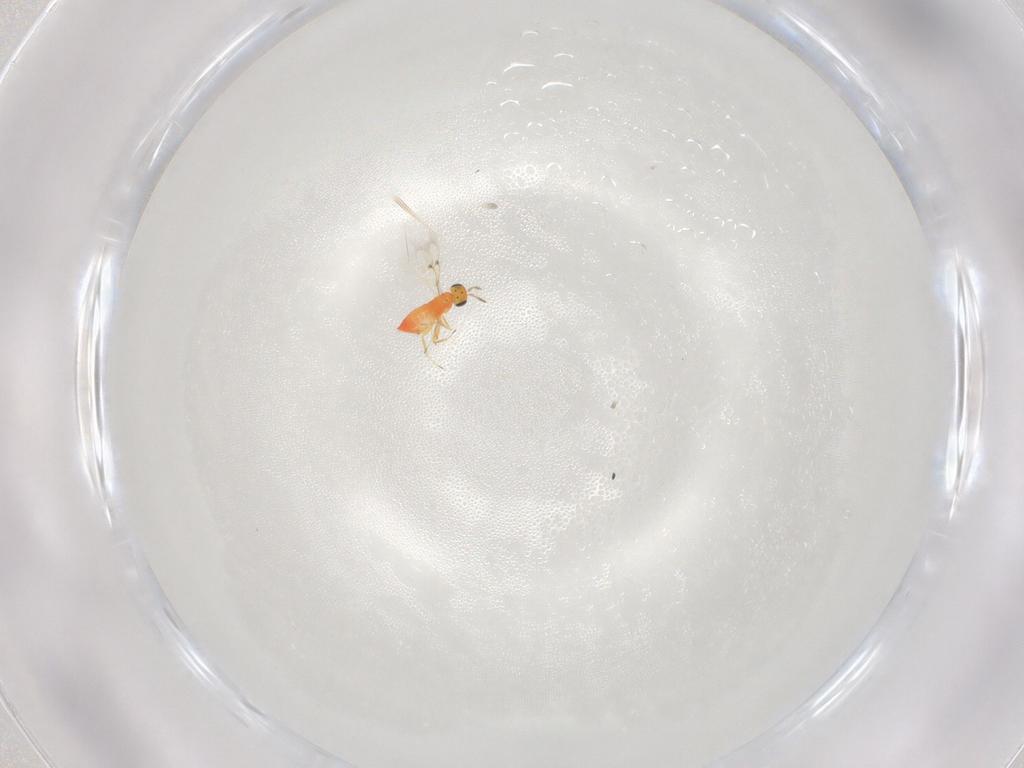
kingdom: Animalia
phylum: Arthropoda
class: Insecta
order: Hymenoptera
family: Trichogrammatidae
